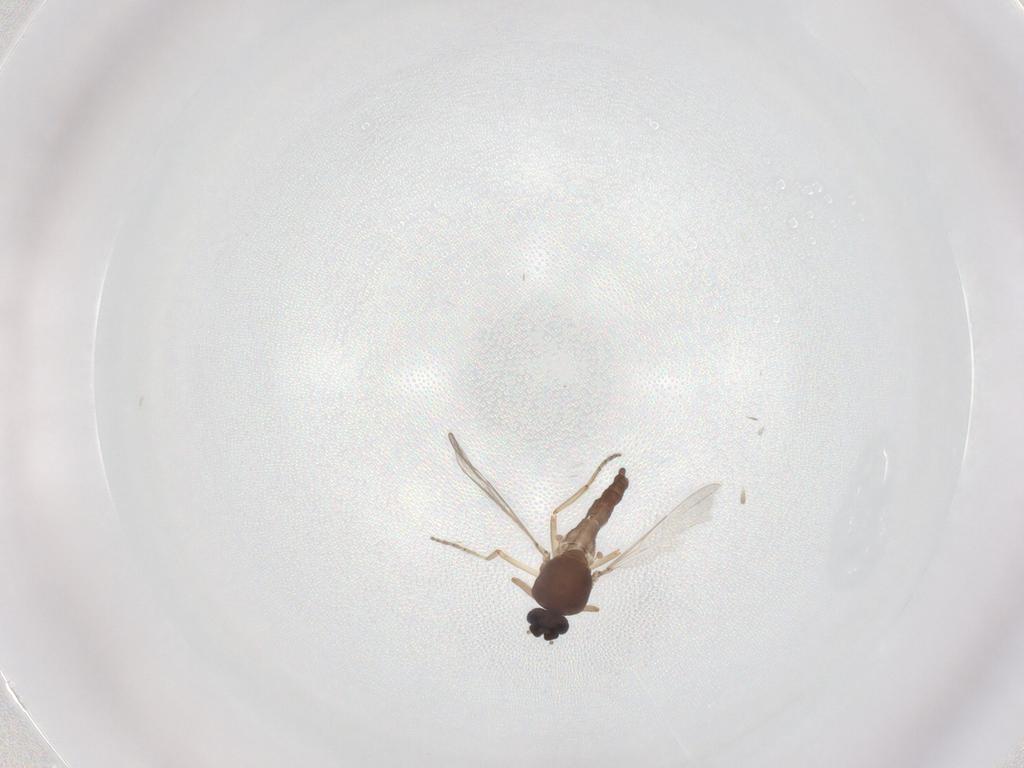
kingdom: Animalia
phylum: Arthropoda
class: Insecta
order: Diptera
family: Ceratopogonidae
